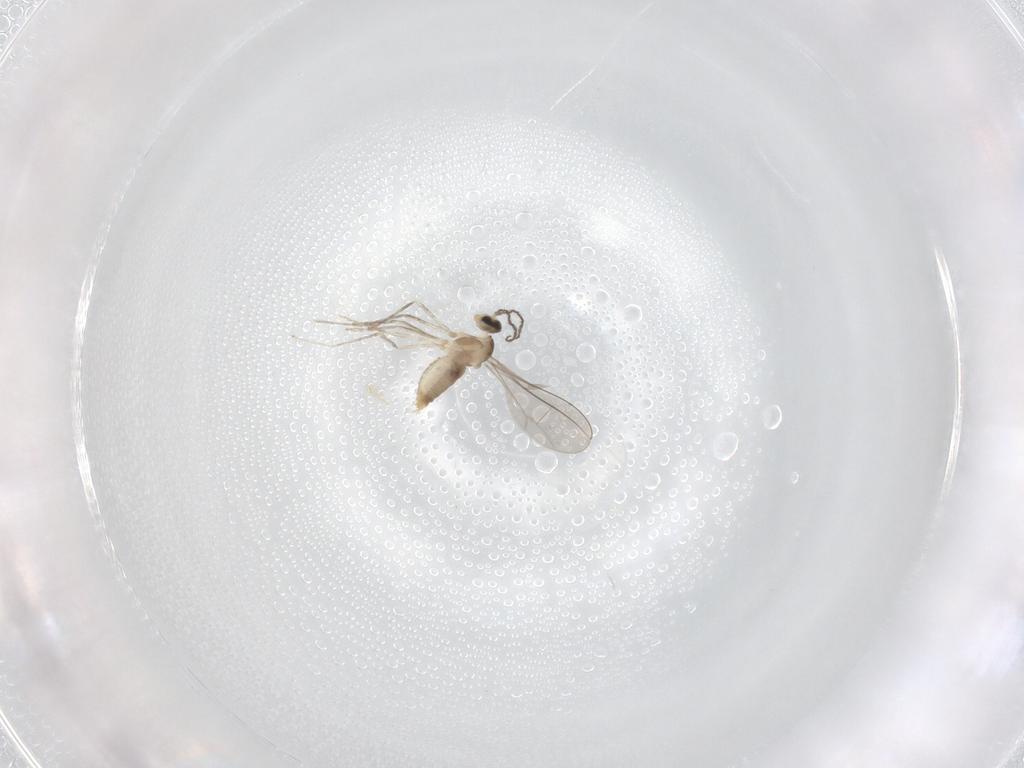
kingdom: Animalia
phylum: Arthropoda
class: Insecta
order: Diptera
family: Cecidomyiidae
